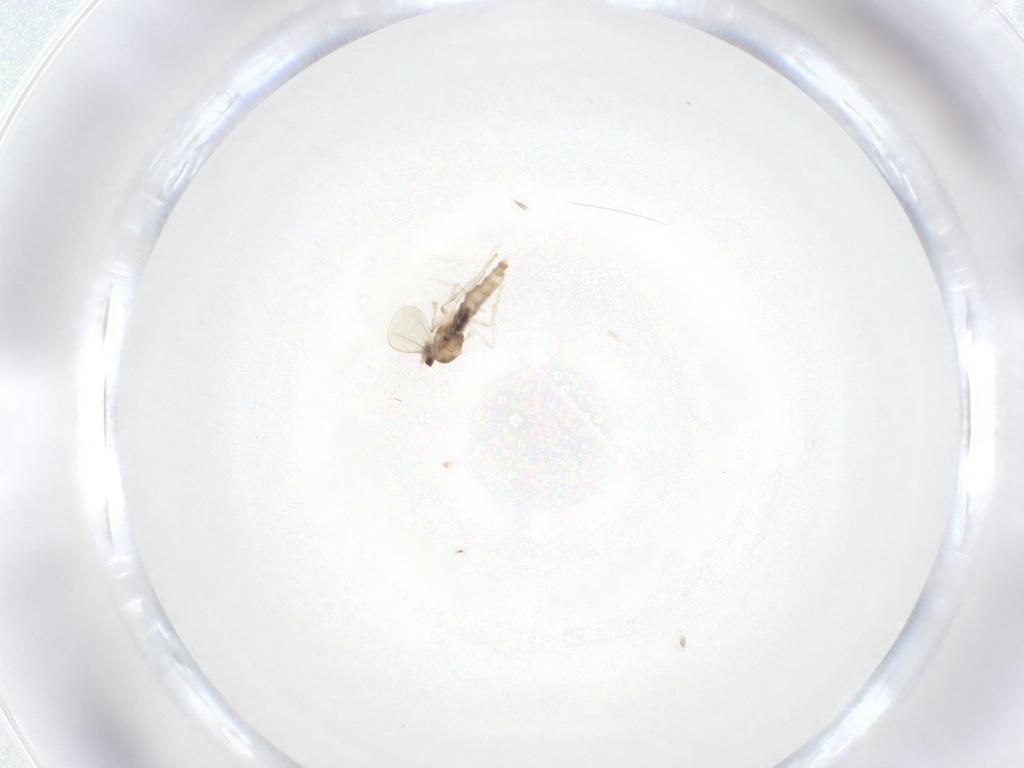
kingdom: Animalia
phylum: Arthropoda
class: Insecta
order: Diptera
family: Cecidomyiidae
